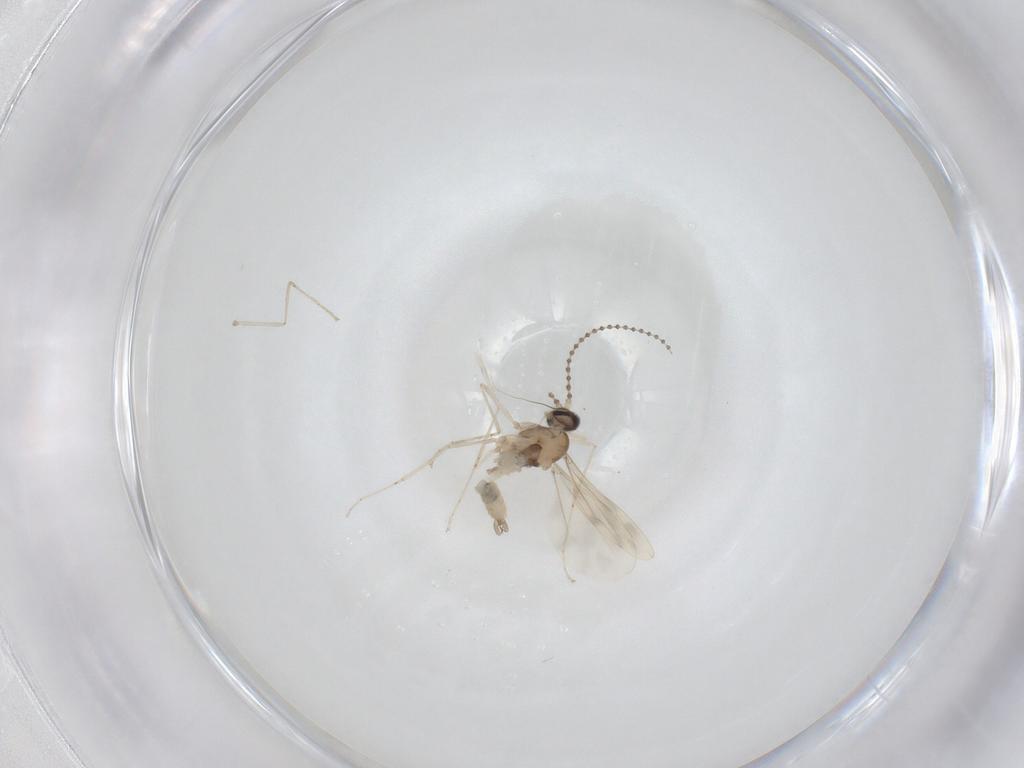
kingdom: Animalia
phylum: Arthropoda
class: Insecta
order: Diptera
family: Cecidomyiidae
